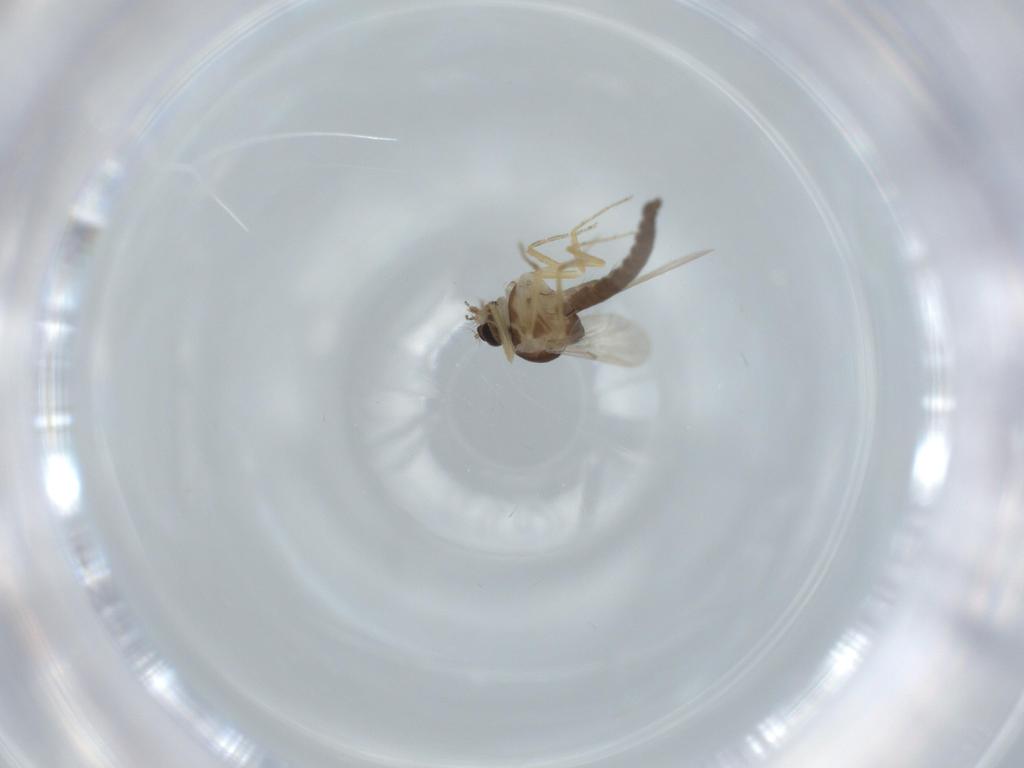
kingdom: Animalia
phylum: Arthropoda
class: Insecta
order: Diptera
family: Ceratopogonidae
